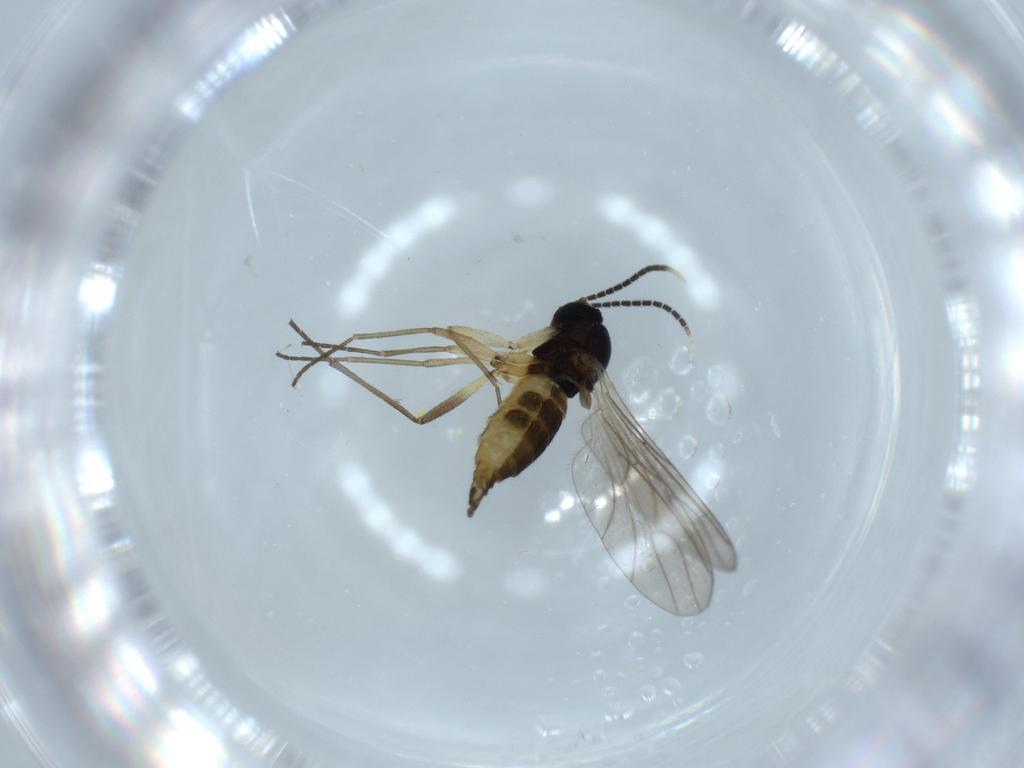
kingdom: Animalia
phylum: Arthropoda
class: Insecta
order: Diptera
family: Sciaridae
